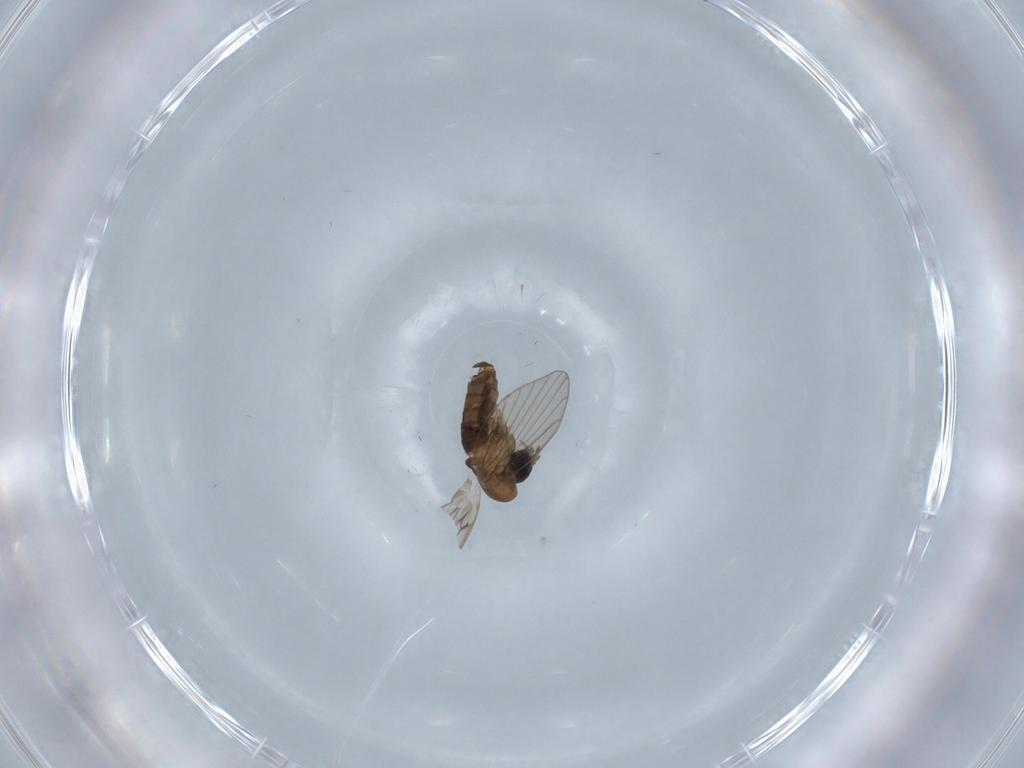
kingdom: Animalia
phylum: Arthropoda
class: Insecta
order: Diptera
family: Psychodidae
